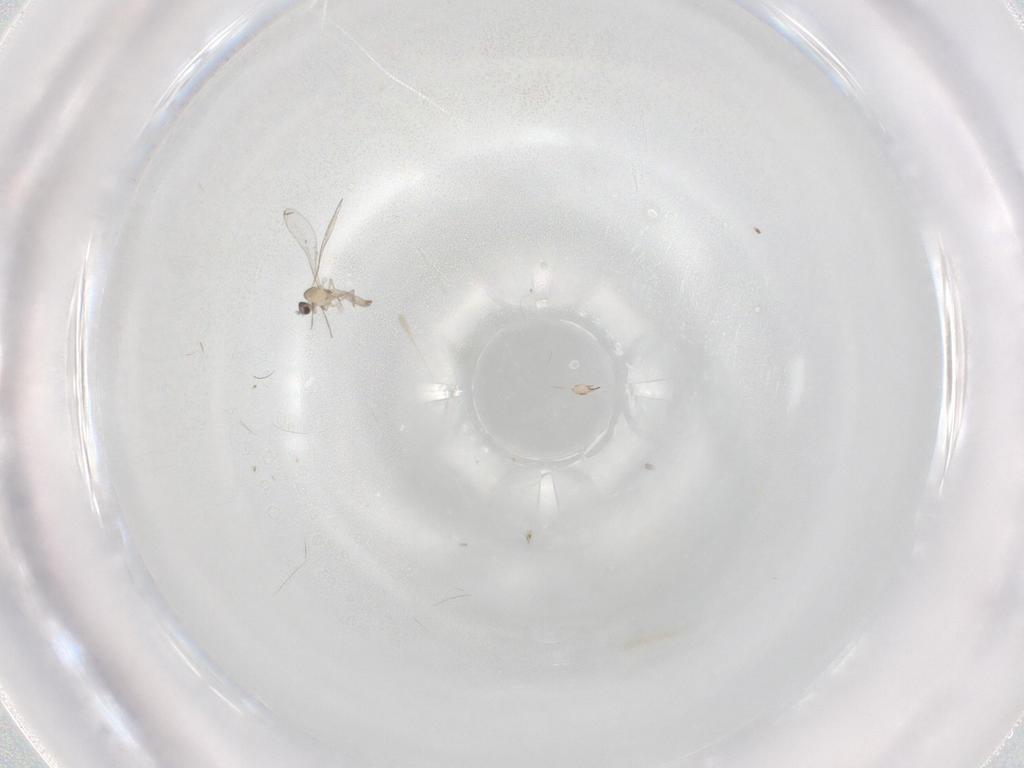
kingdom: Animalia
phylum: Arthropoda
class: Insecta
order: Diptera
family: Cecidomyiidae
